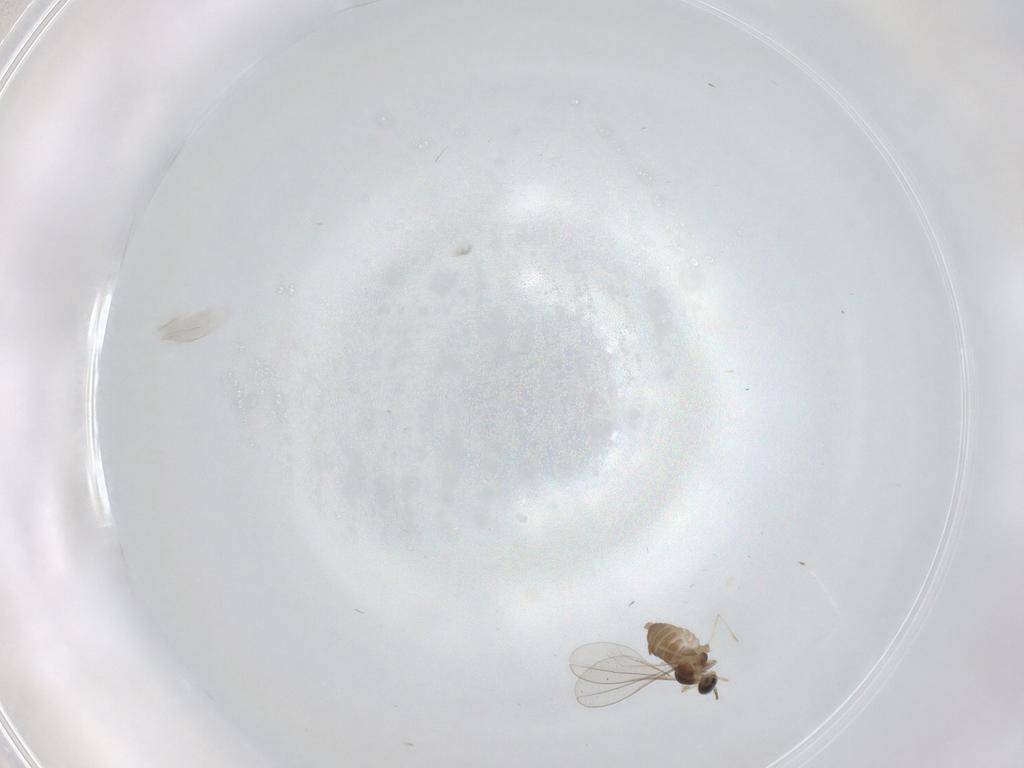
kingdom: Animalia
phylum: Arthropoda
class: Insecta
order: Diptera
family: Cecidomyiidae
